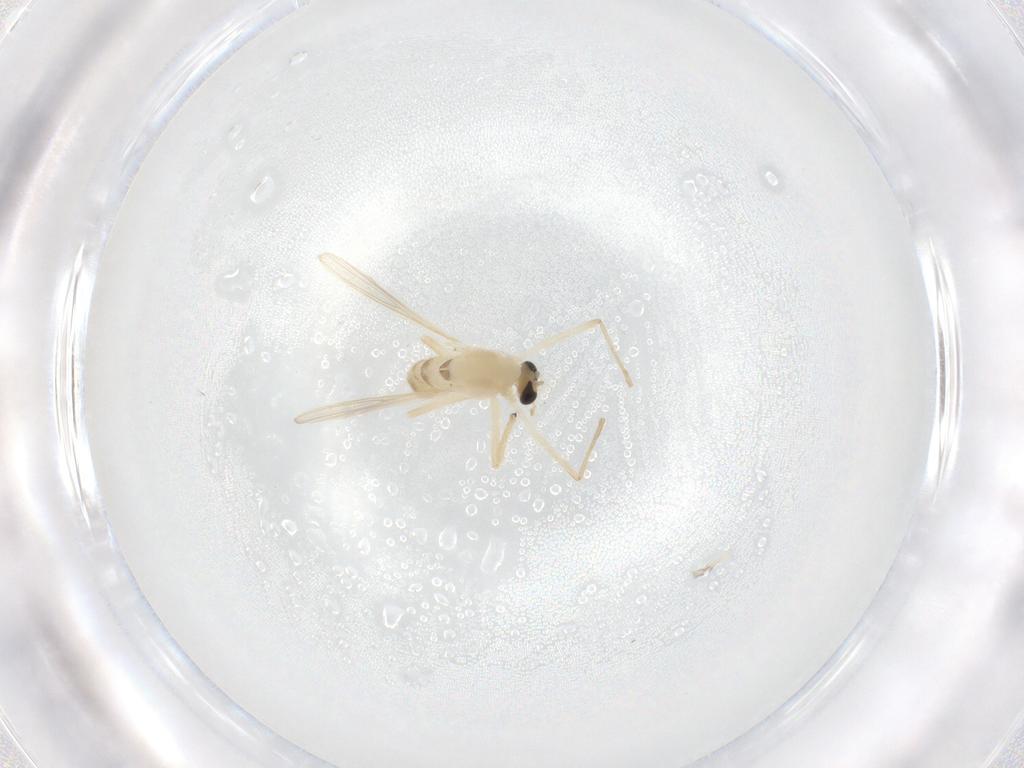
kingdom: Animalia
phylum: Arthropoda
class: Insecta
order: Diptera
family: Chironomidae
